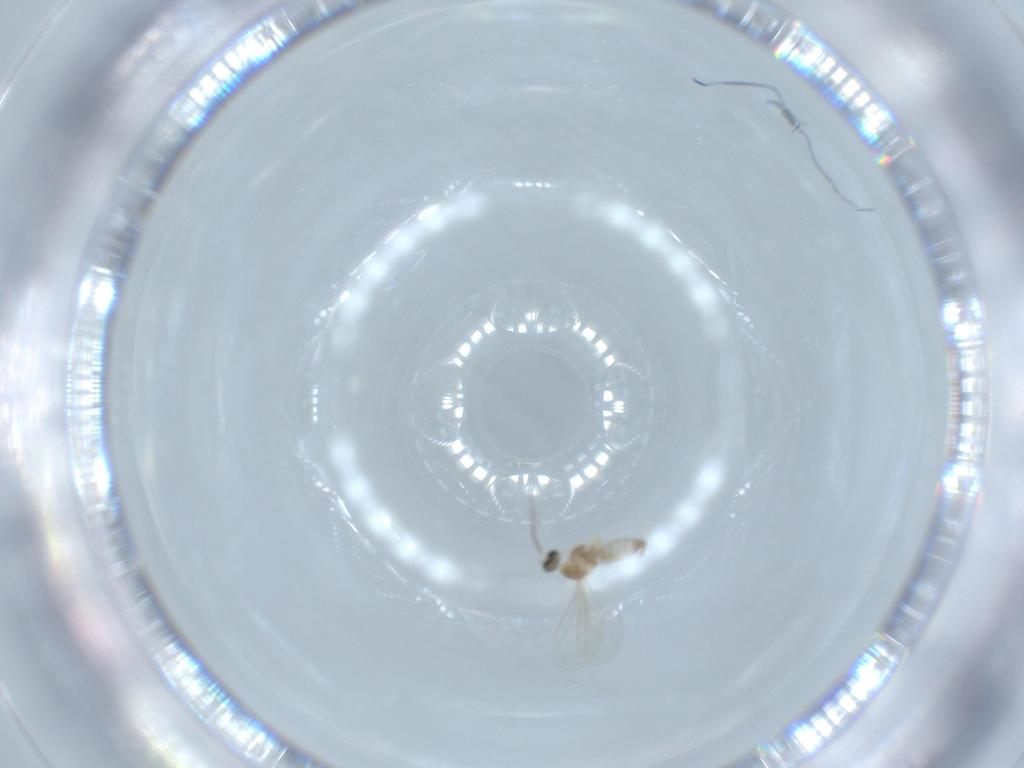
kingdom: Animalia
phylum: Arthropoda
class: Insecta
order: Diptera
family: Cecidomyiidae
